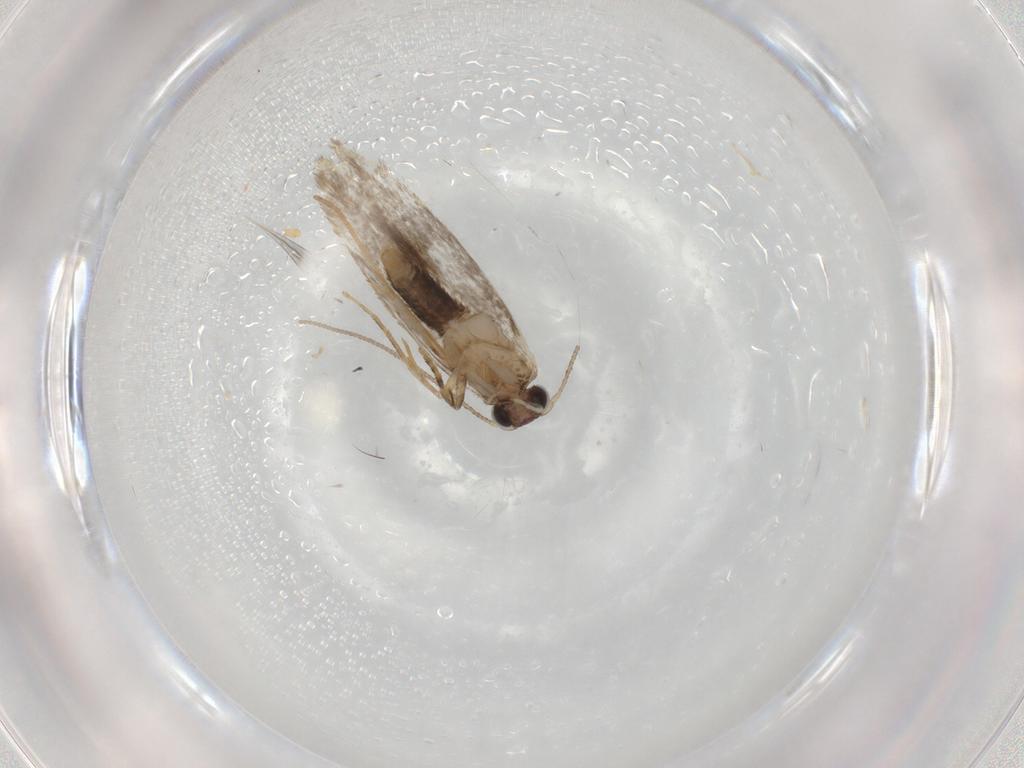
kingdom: Animalia
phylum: Arthropoda
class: Insecta
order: Lepidoptera
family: Tineidae
